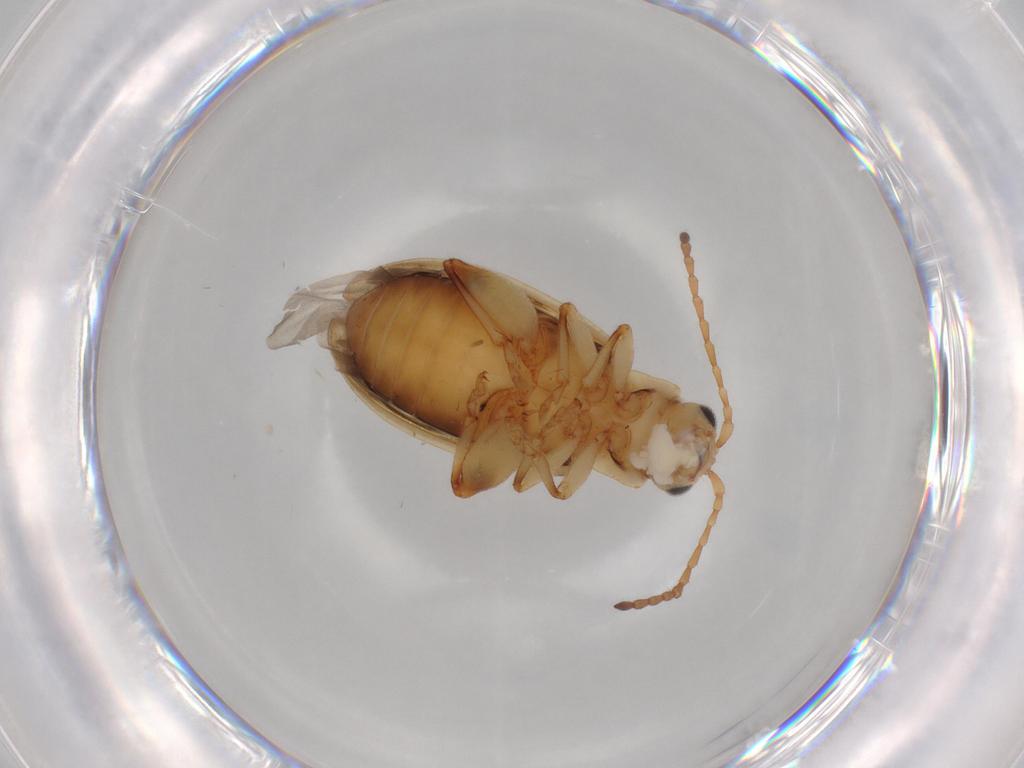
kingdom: Animalia
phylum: Arthropoda
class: Insecta
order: Coleoptera
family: Chrysomelidae
